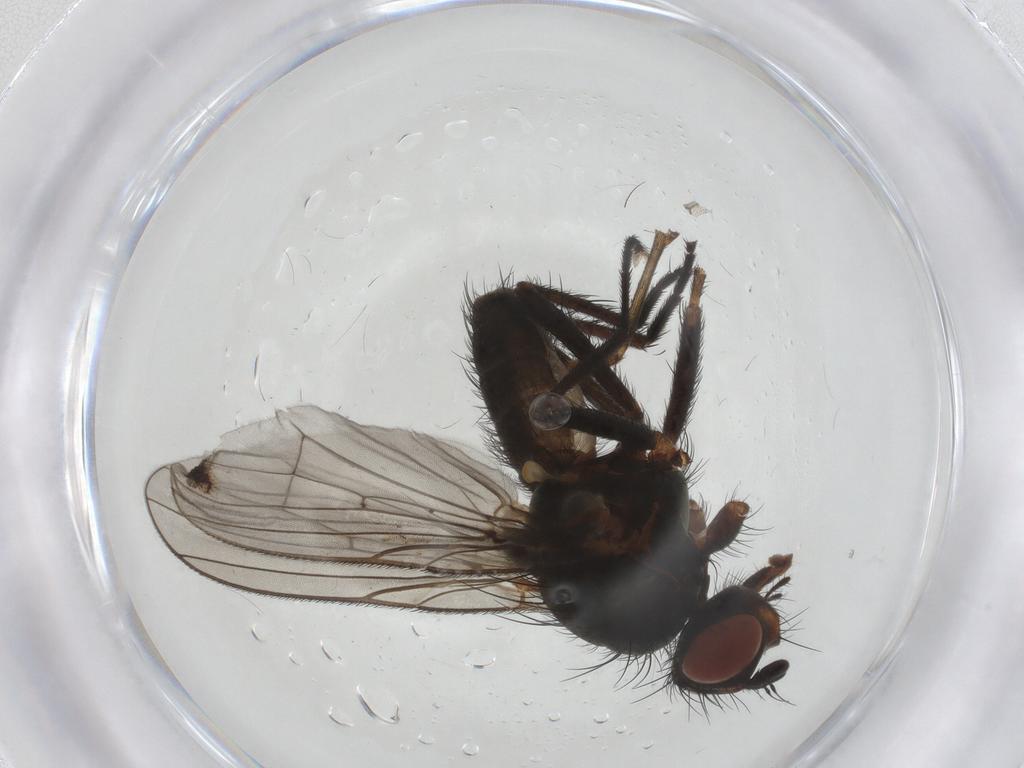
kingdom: Animalia
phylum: Arthropoda
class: Insecta
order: Diptera
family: Anthomyiidae
